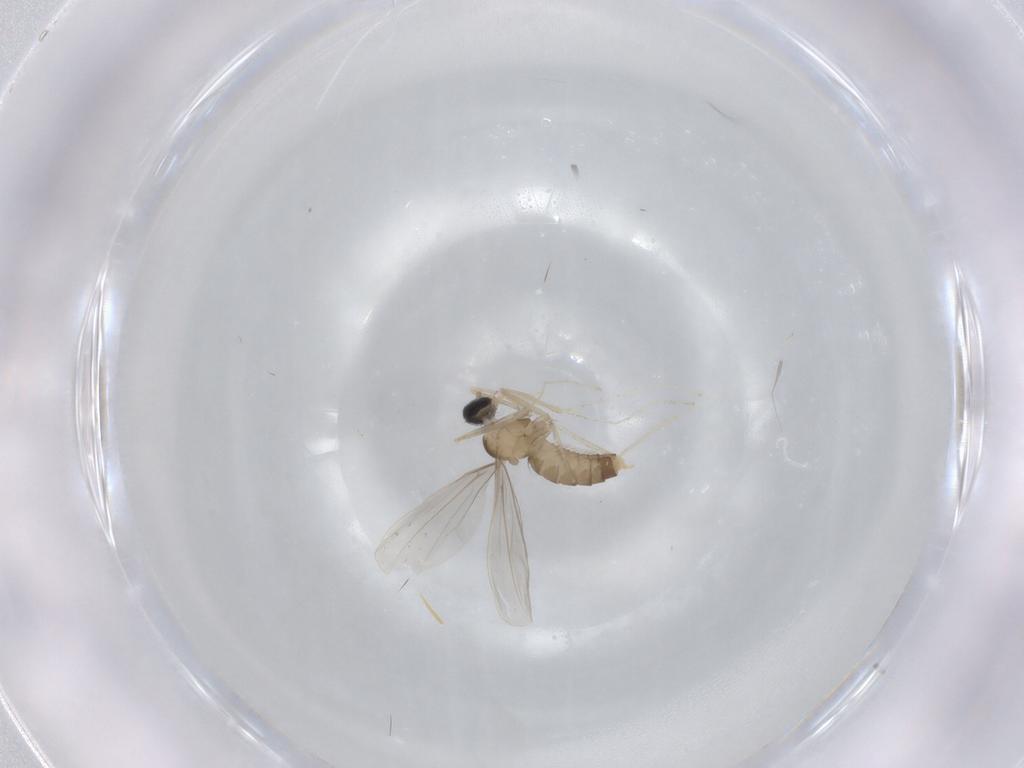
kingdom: Animalia
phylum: Arthropoda
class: Insecta
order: Diptera
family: Cecidomyiidae
